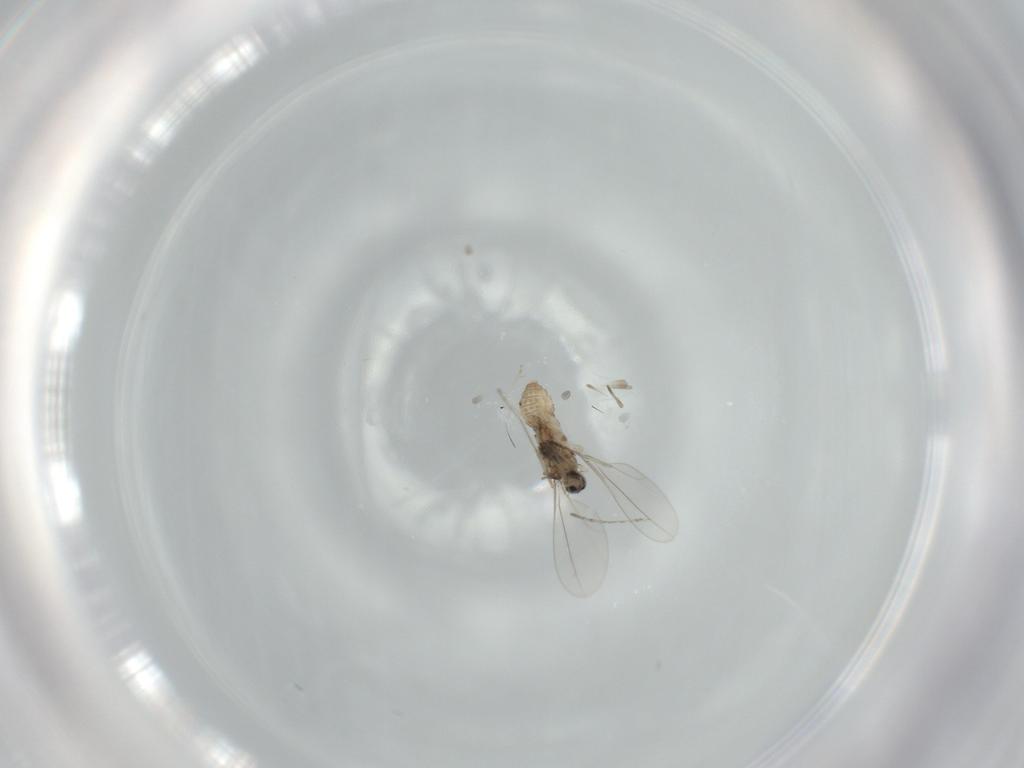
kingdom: Animalia
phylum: Arthropoda
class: Insecta
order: Diptera
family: Cecidomyiidae
